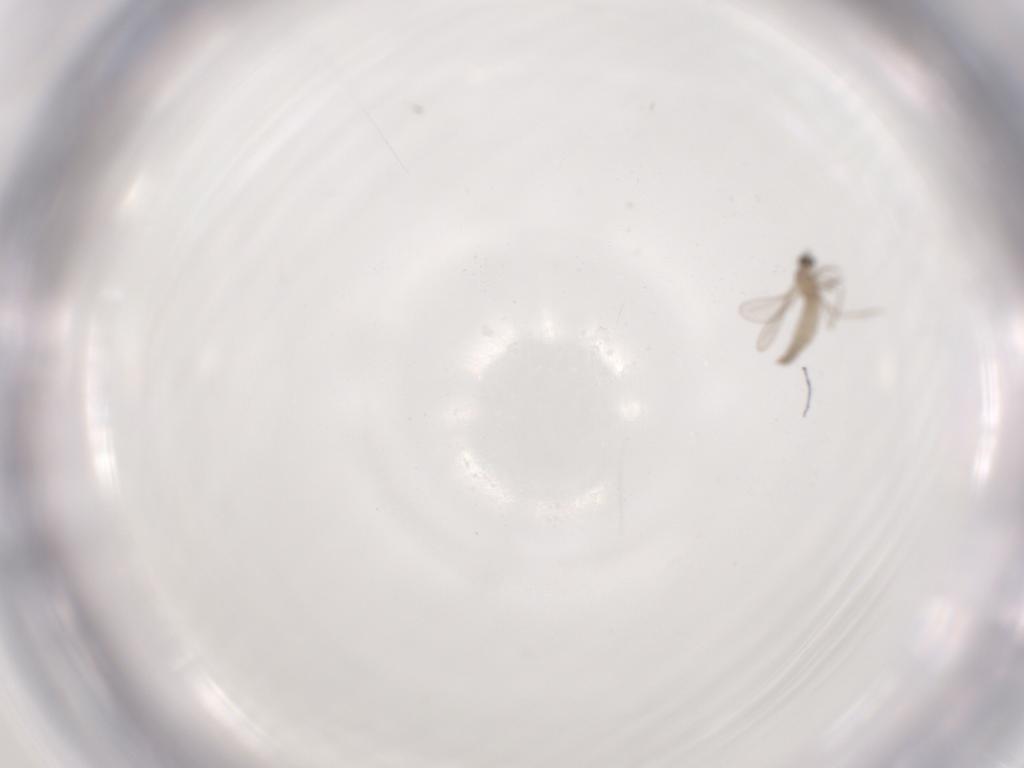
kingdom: Animalia
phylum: Arthropoda
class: Insecta
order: Diptera
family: Cecidomyiidae
